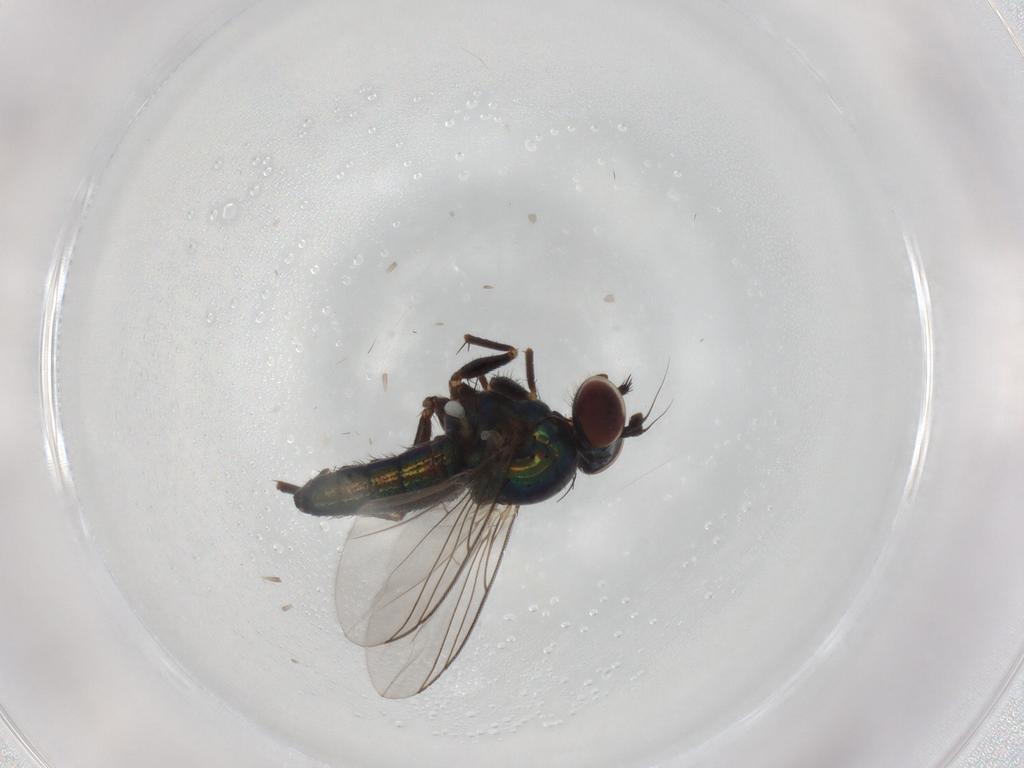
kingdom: Animalia
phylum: Arthropoda
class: Insecta
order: Diptera
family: Dolichopodidae
